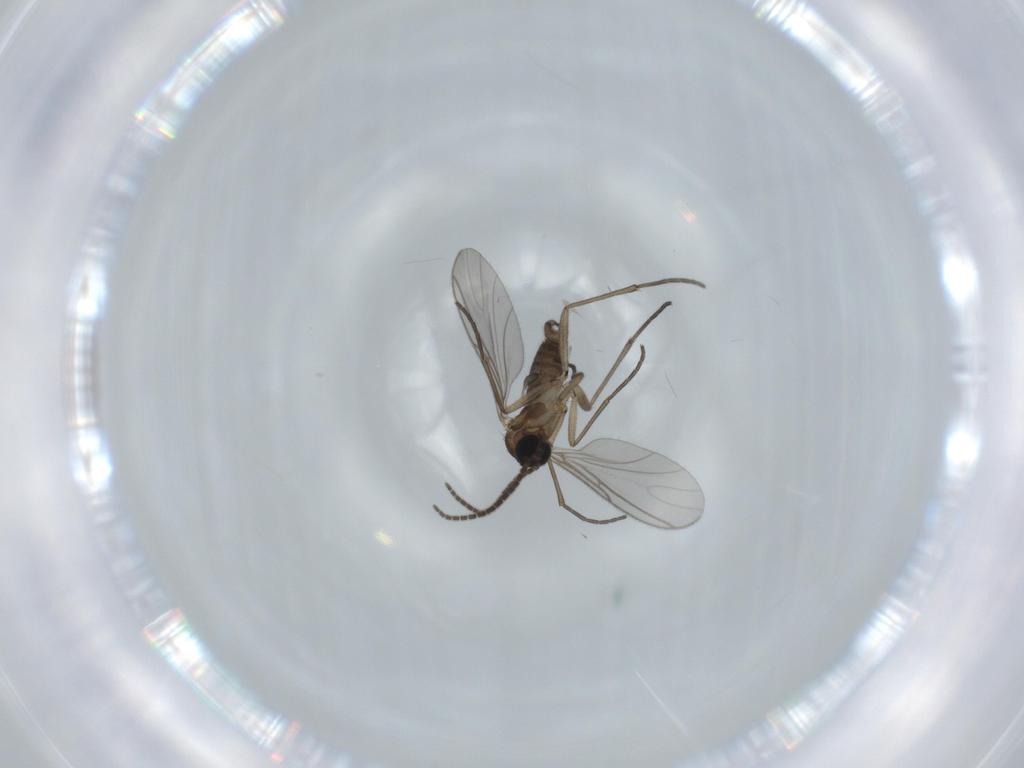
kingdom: Animalia
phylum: Arthropoda
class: Insecta
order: Diptera
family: Sciaridae
